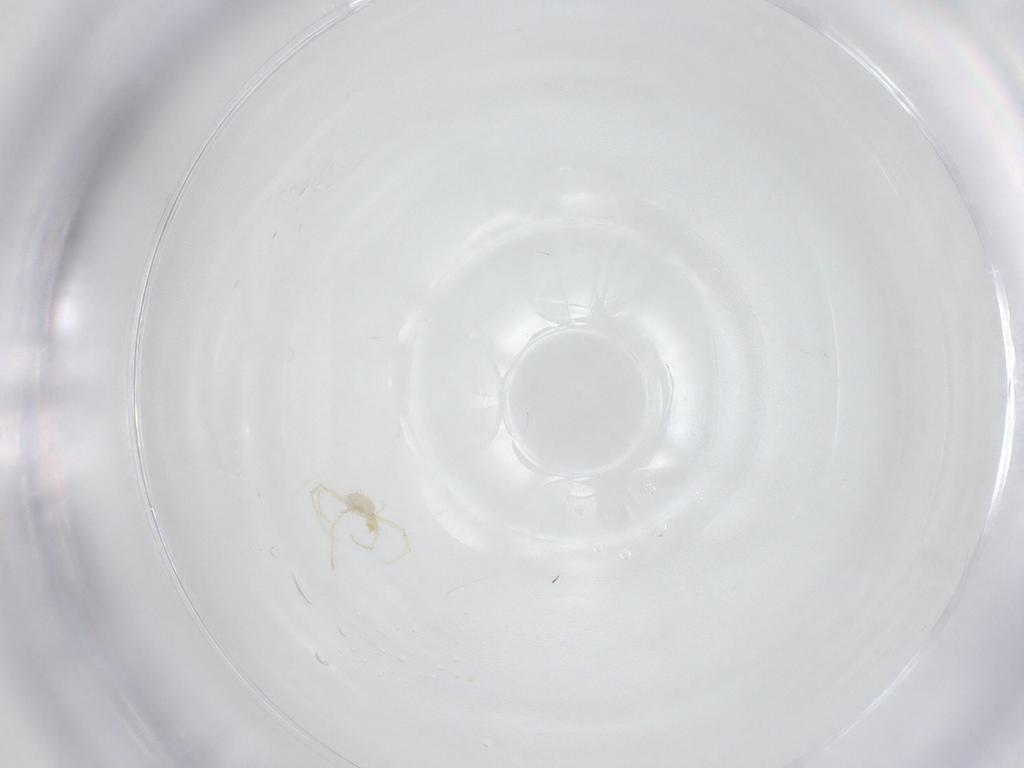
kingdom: Animalia
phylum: Arthropoda
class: Arachnida
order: Trombidiformes
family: Erythraeidae
